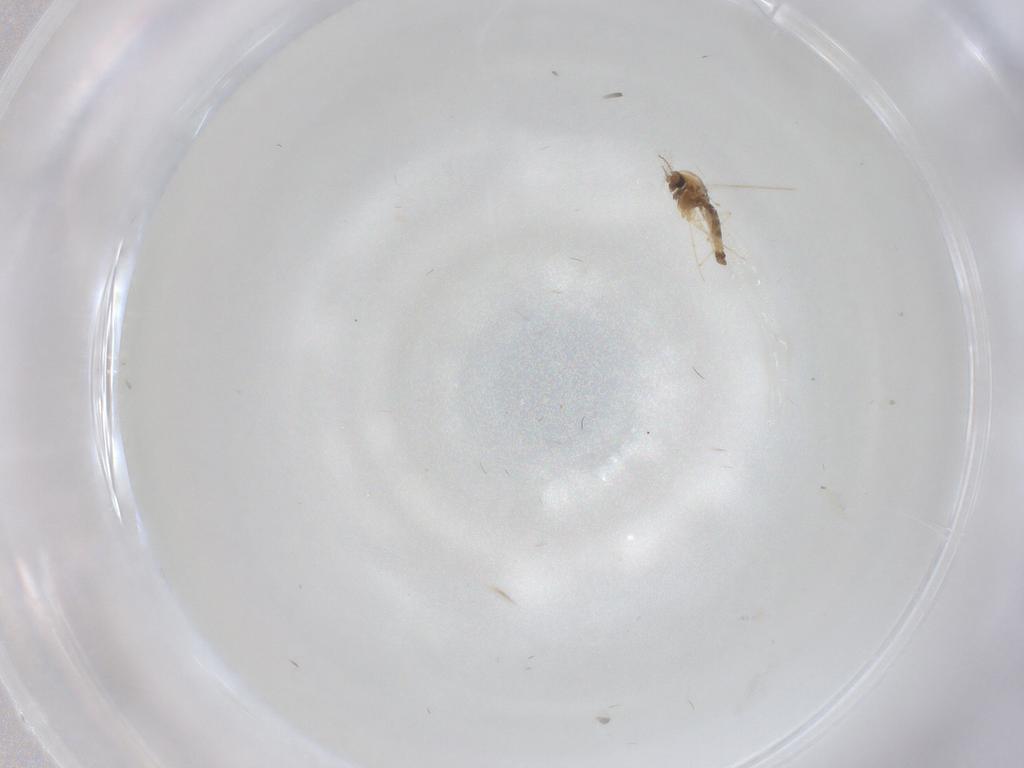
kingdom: Animalia
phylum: Arthropoda
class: Insecta
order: Diptera
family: Chironomidae
